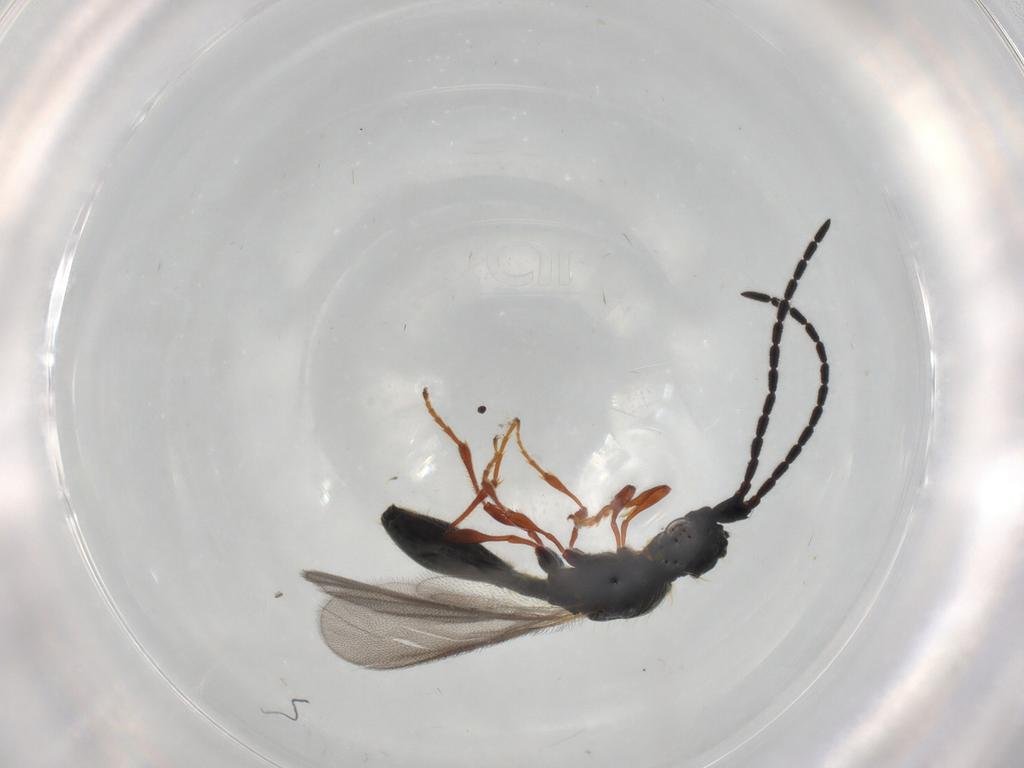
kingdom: Animalia
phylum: Arthropoda
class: Insecta
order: Hymenoptera
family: Diapriidae
